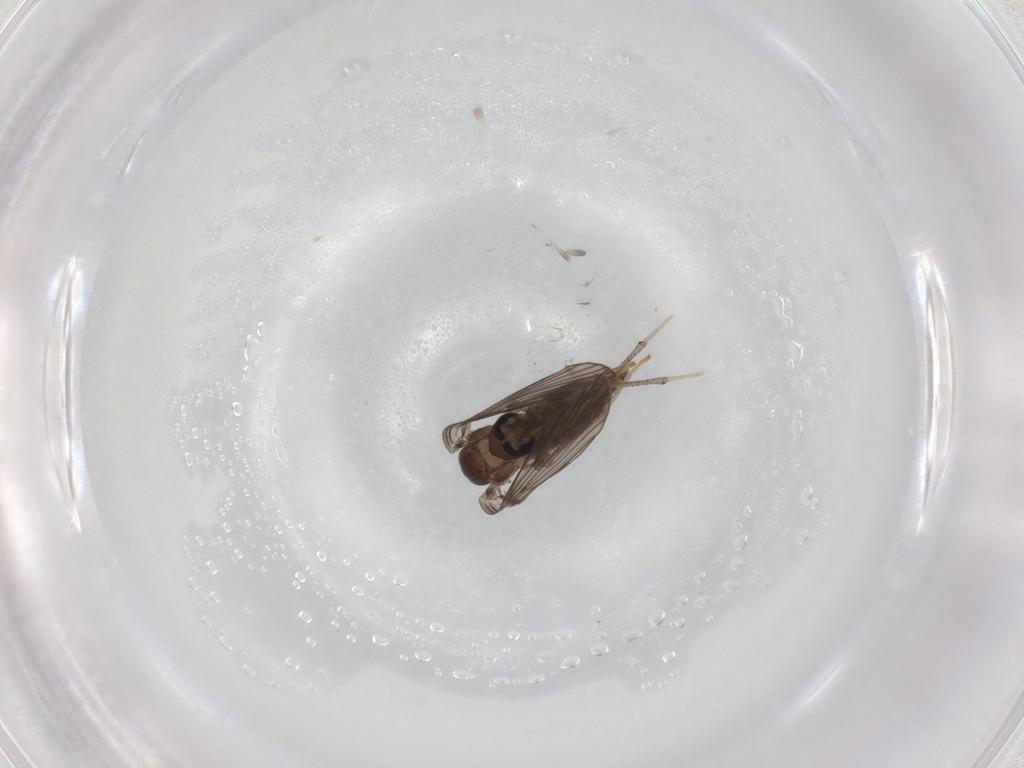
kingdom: Animalia
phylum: Arthropoda
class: Insecta
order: Diptera
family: Psychodidae
